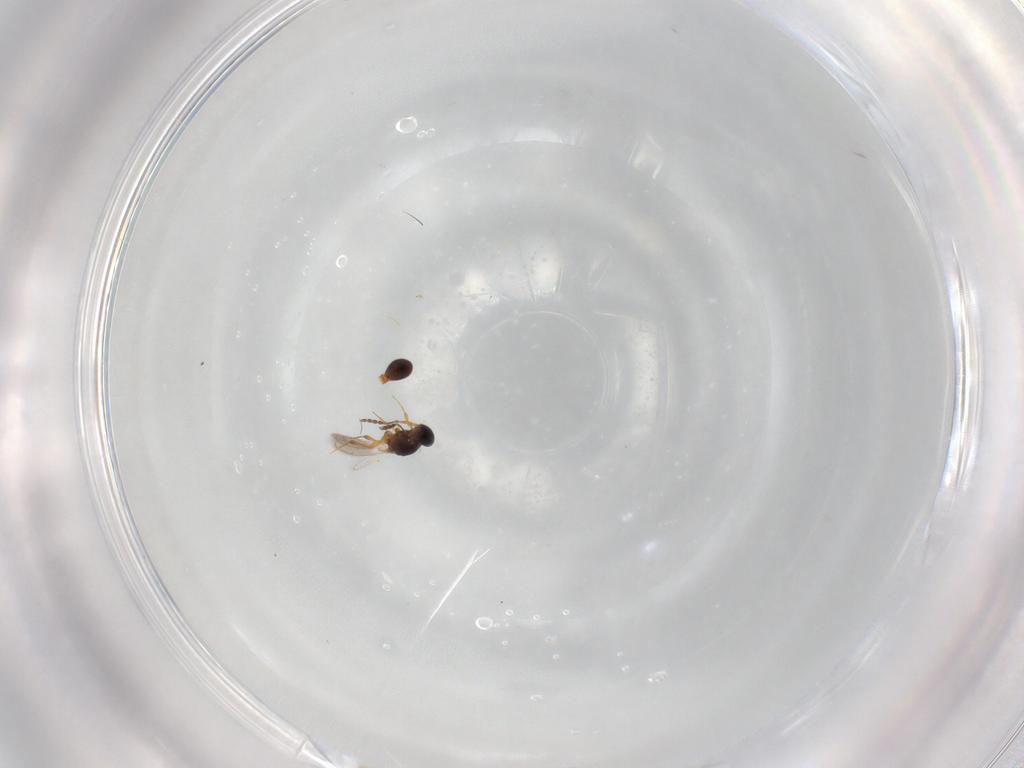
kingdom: Animalia
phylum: Arthropoda
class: Insecta
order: Hymenoptera
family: Platygastridae
